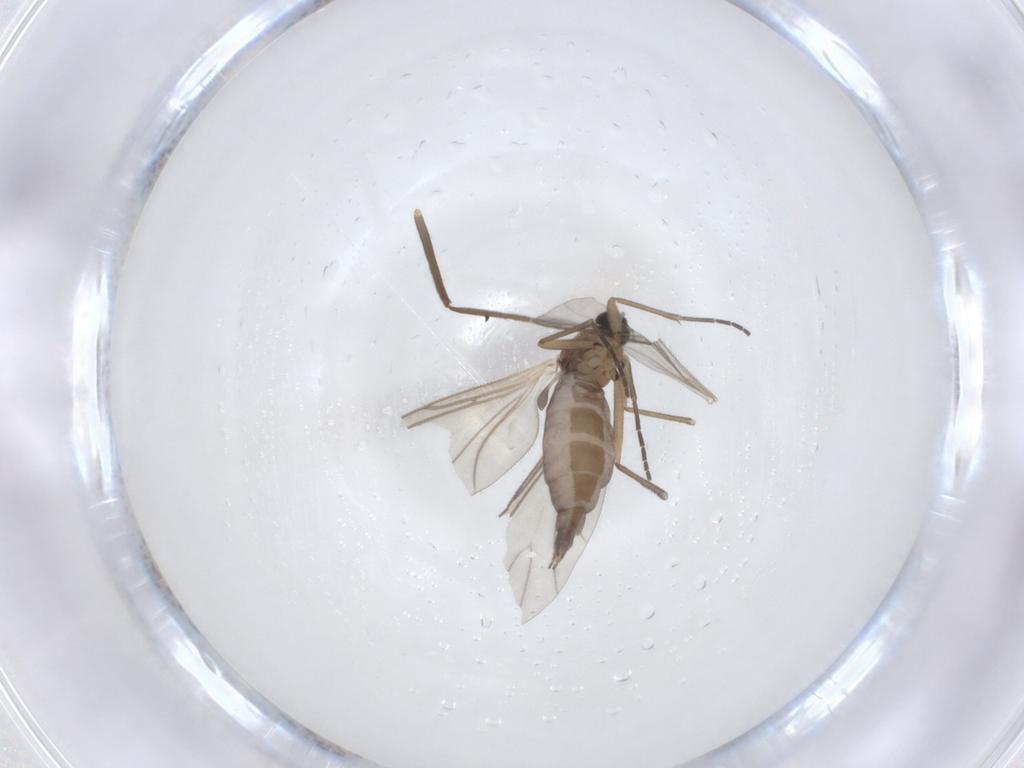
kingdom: Animalia
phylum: Arthropoda
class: Insecta
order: Diptera
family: Sciaridae
